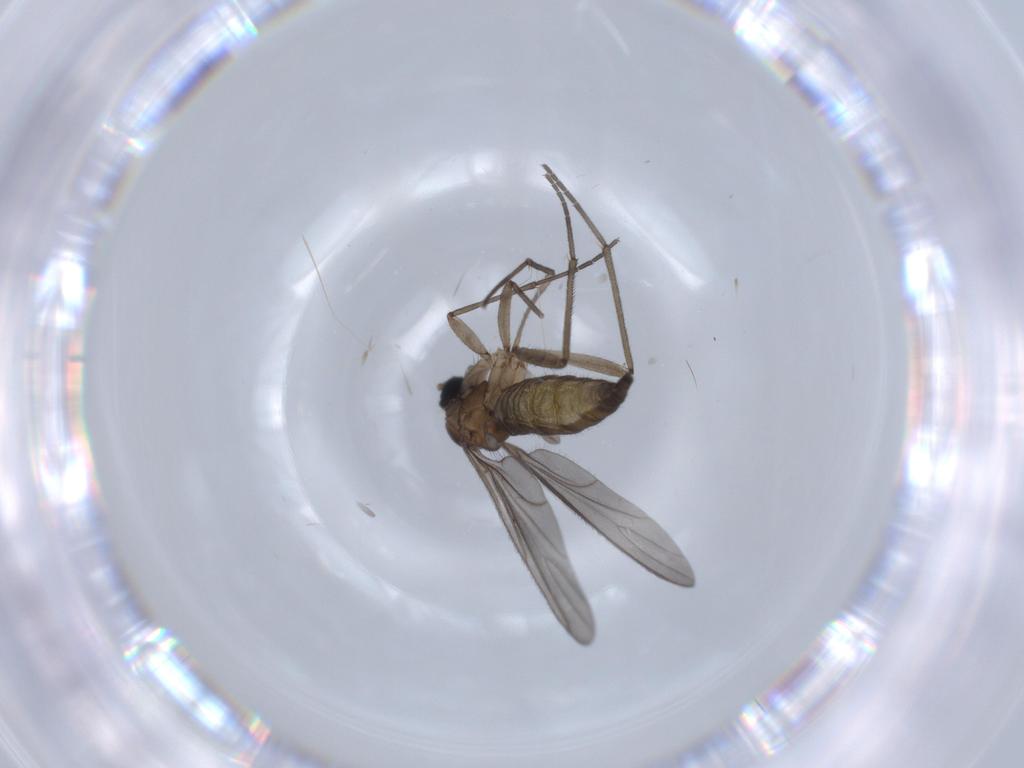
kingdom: Animalia
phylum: Arthropoda
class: Insecta
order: Diptera
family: Sciaridae
